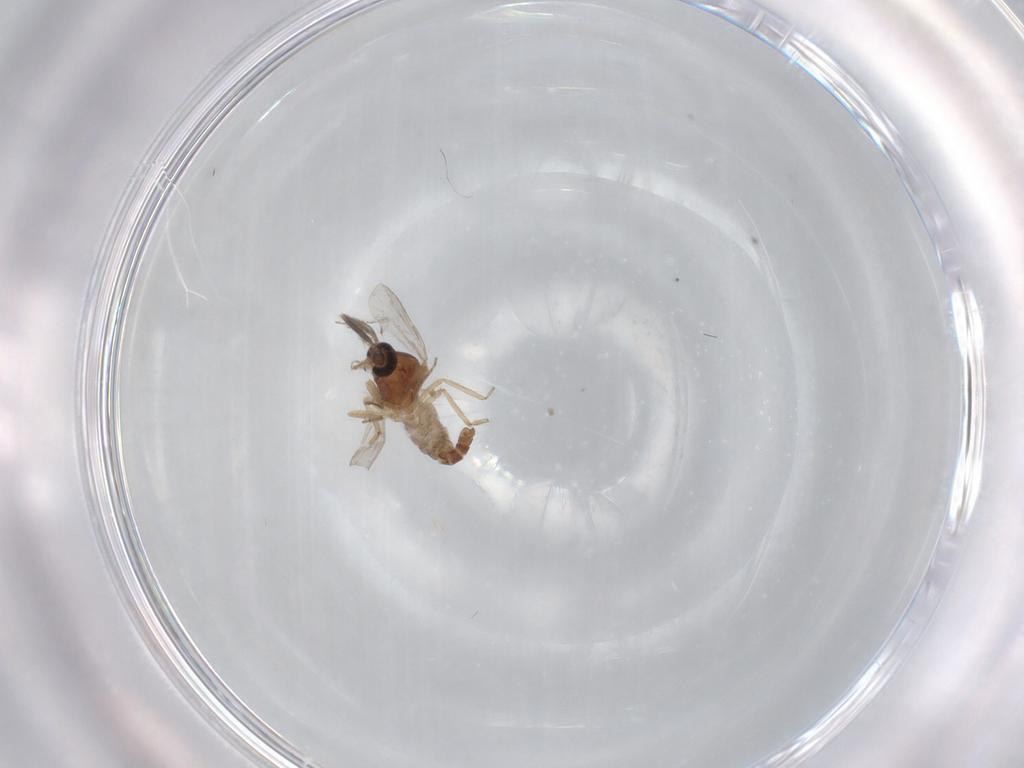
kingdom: Animalia
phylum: Arthropoda
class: Insecta
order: Diptera
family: Ceratopogonidae
